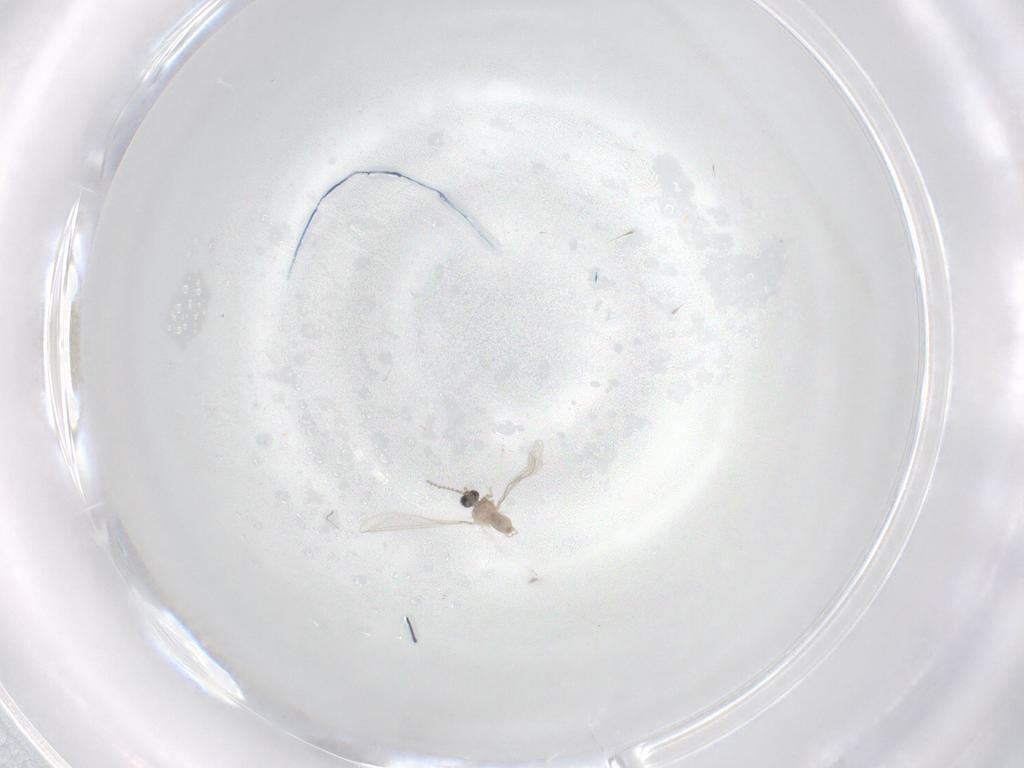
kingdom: Animalia
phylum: Arthropoda
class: Insecta
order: Diptera
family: Cecidomyiidae
